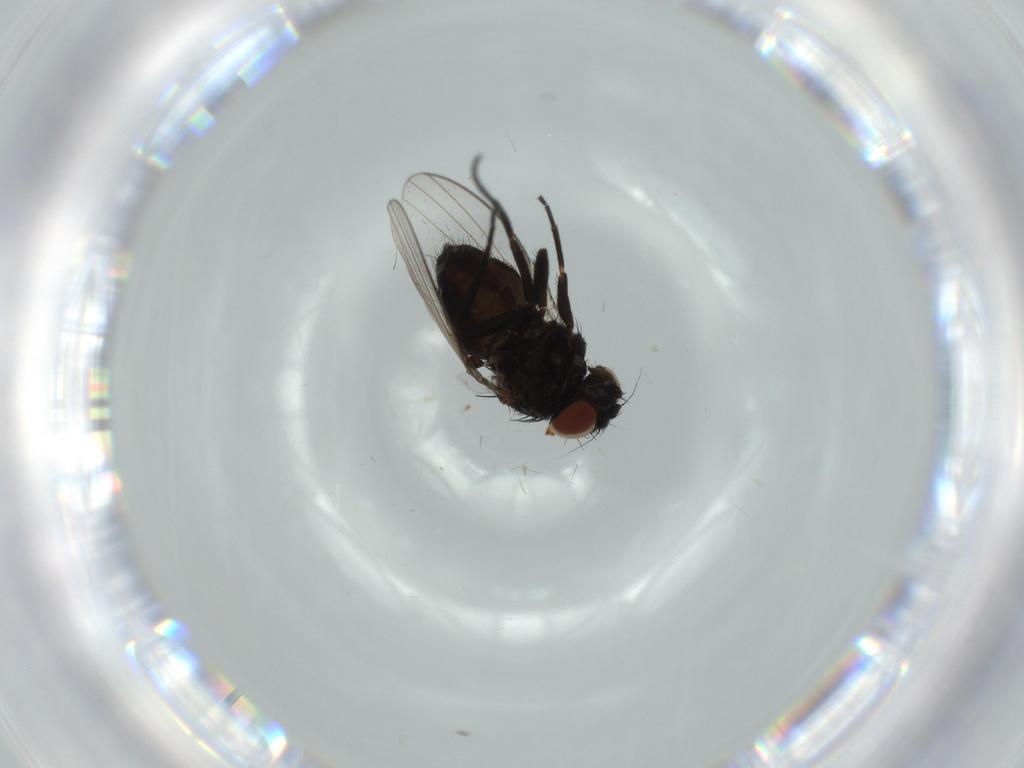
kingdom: Animalia
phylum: Arthropoda
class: Insecta
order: Diptera
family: Milichiidae
